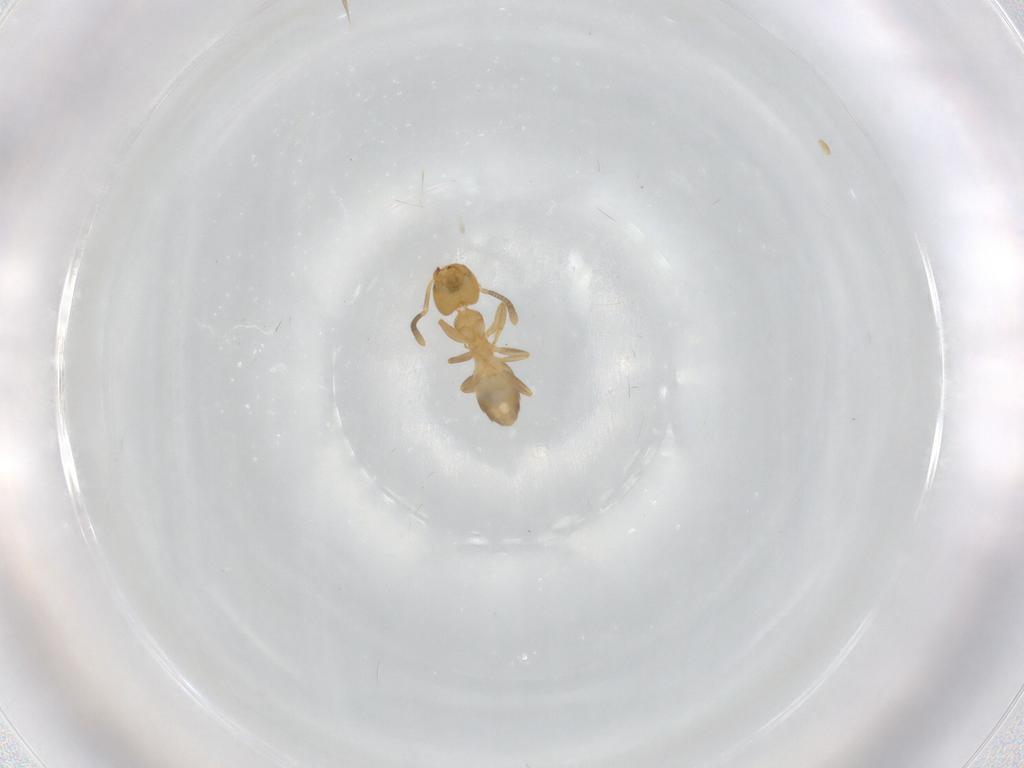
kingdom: Animalia
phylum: Arthropoda
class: Insecta
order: Hymenoptera
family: Formicidae
